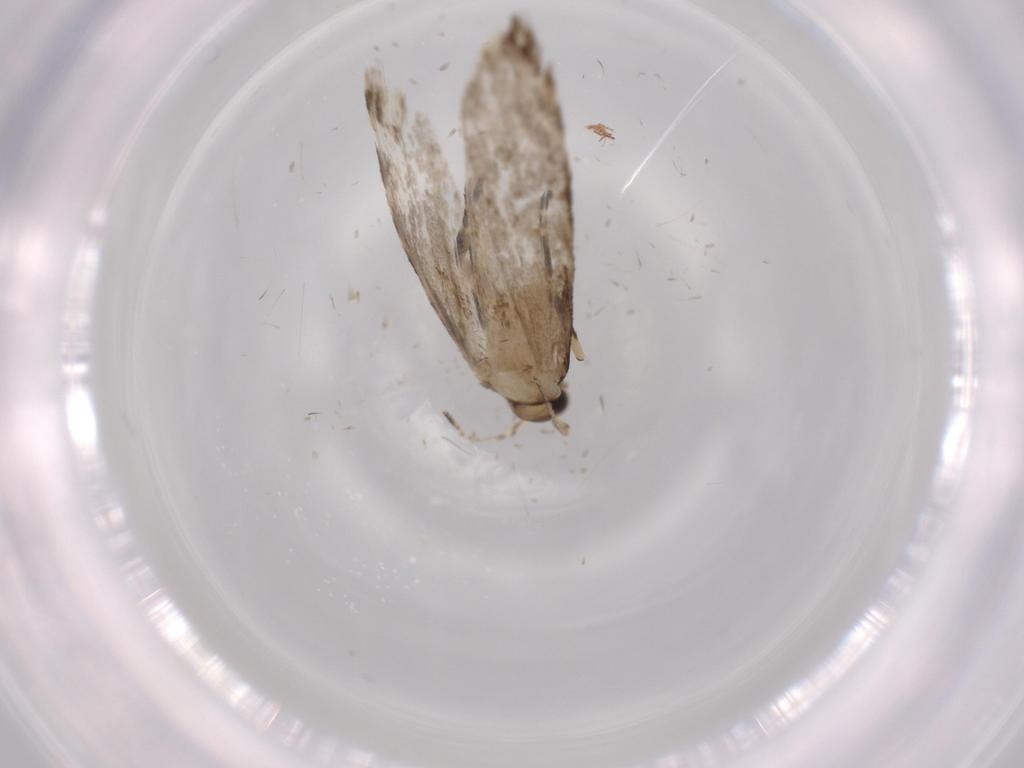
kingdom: Animalia
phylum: Arthropoda
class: Insecta
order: Lepidoptera
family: Tineidae
